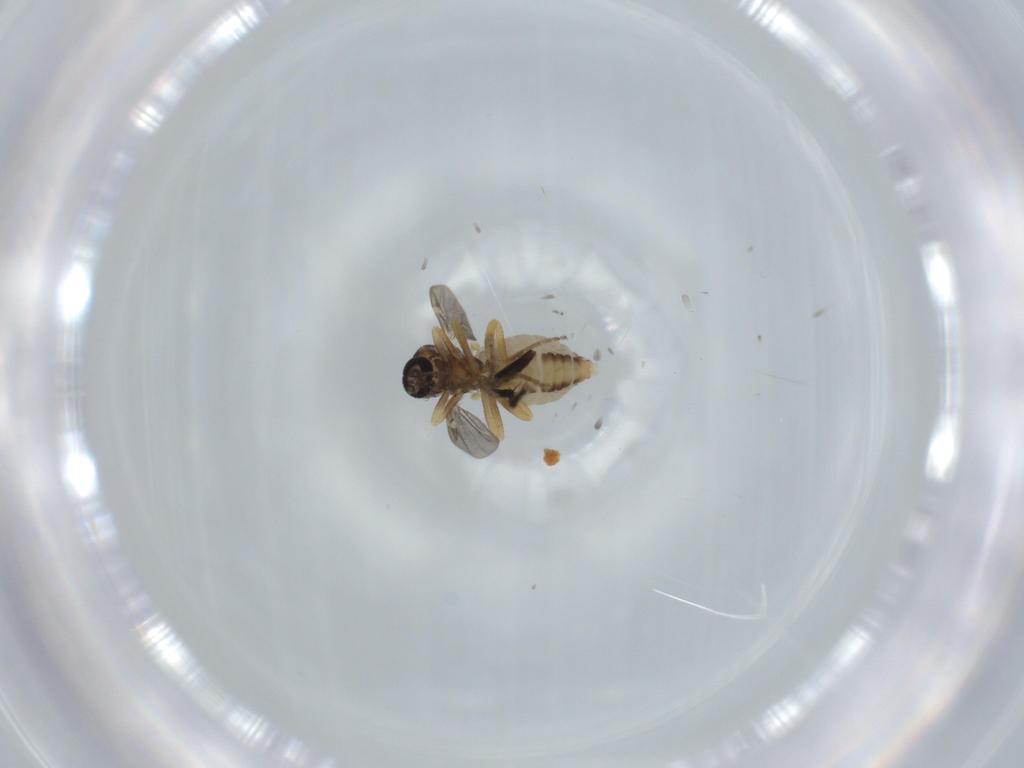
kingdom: Animalia
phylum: Arthropoda
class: Insecta
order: Diptera
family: Ceratopogonidae
